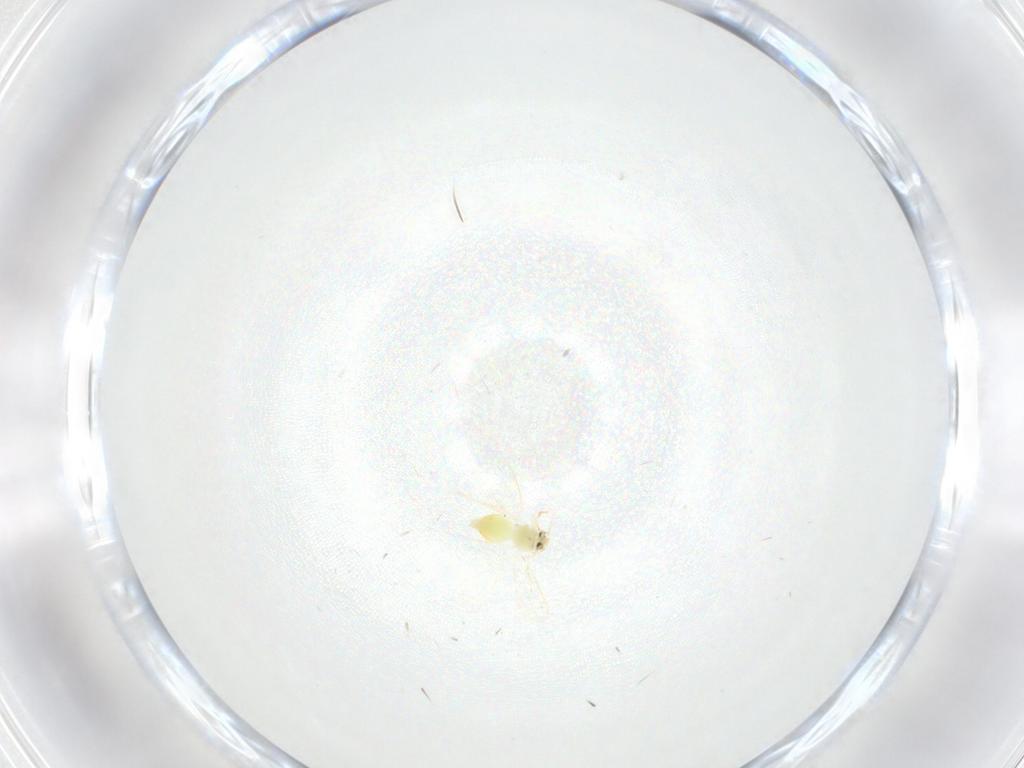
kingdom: Animalia
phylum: Arthropoda
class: Insecta
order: Hemiptera
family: Aleyrodidae
